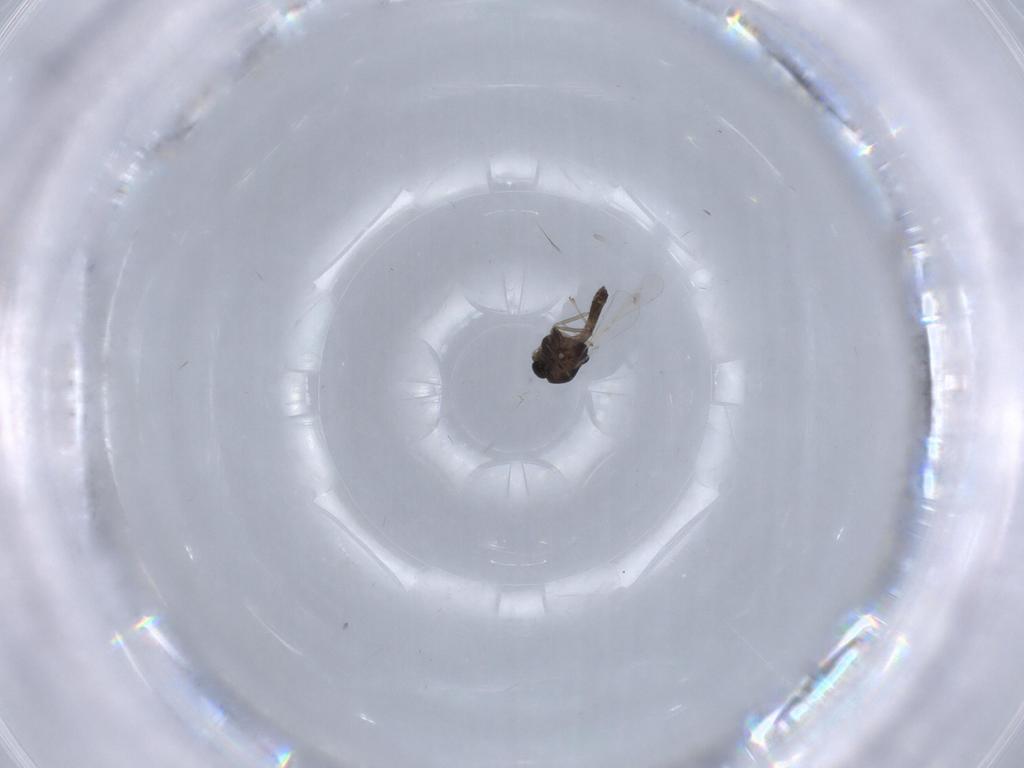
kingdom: Animalia
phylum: Arthropoda
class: Insecta
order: Diptera
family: Chironomidae
